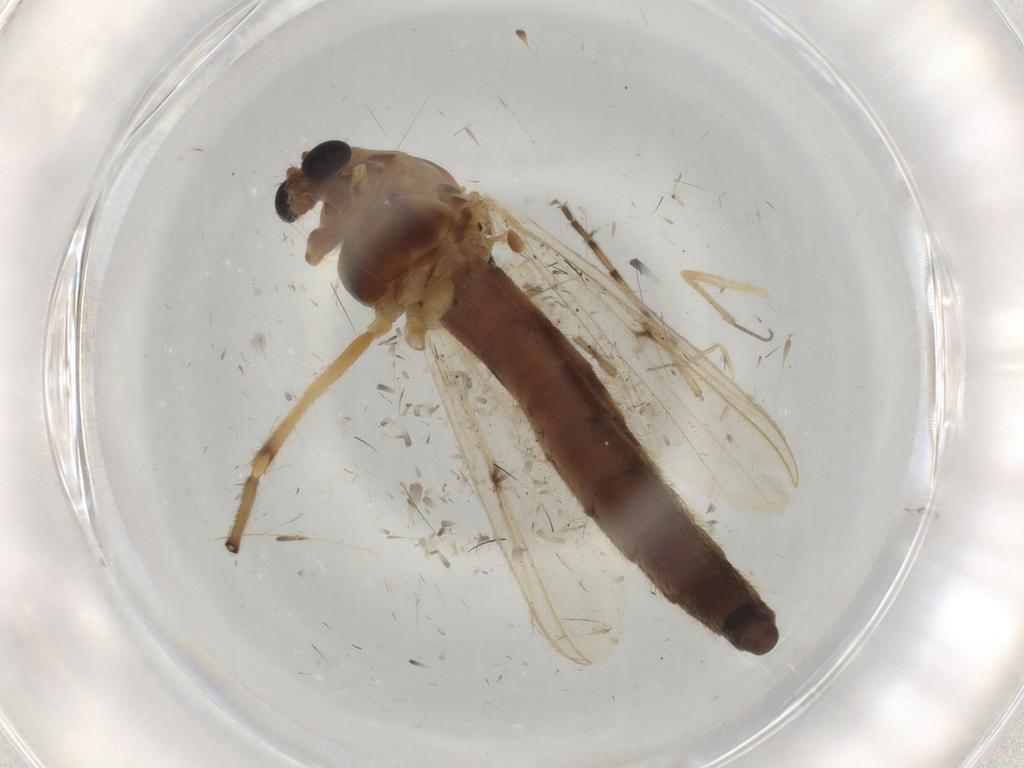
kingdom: Animalia
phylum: Arthropoda
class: Insecta
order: Diptera
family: Chironomidae
